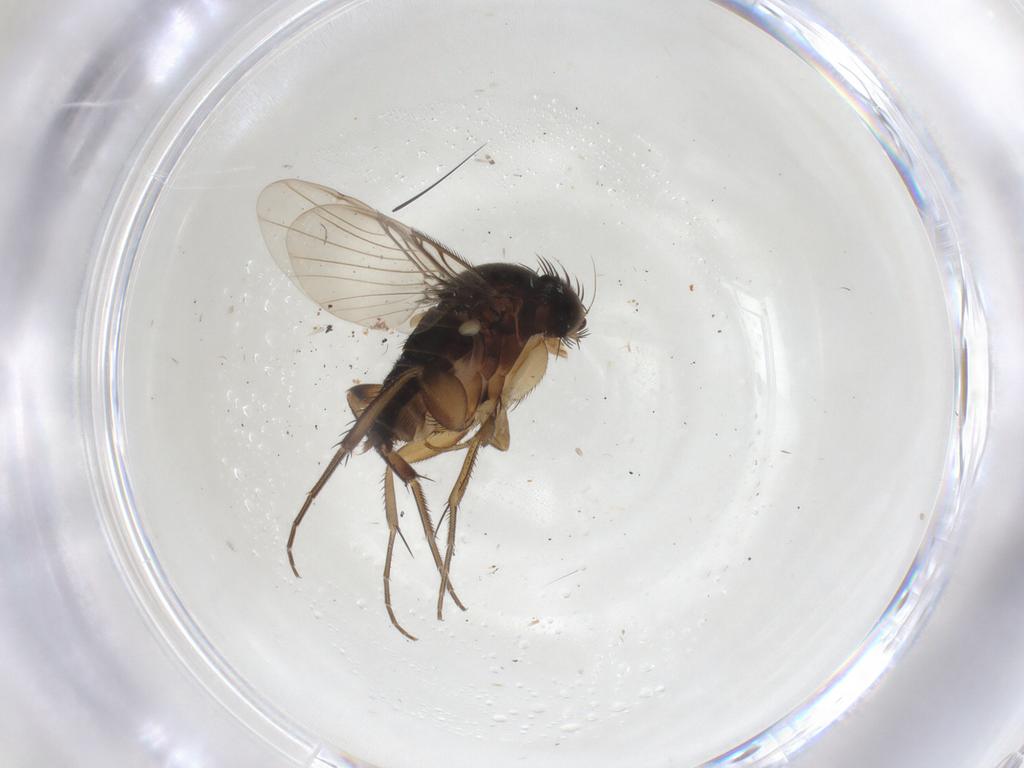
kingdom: Animalia
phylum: Arthropoda
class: Insecta
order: Diptera
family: Phoridae
